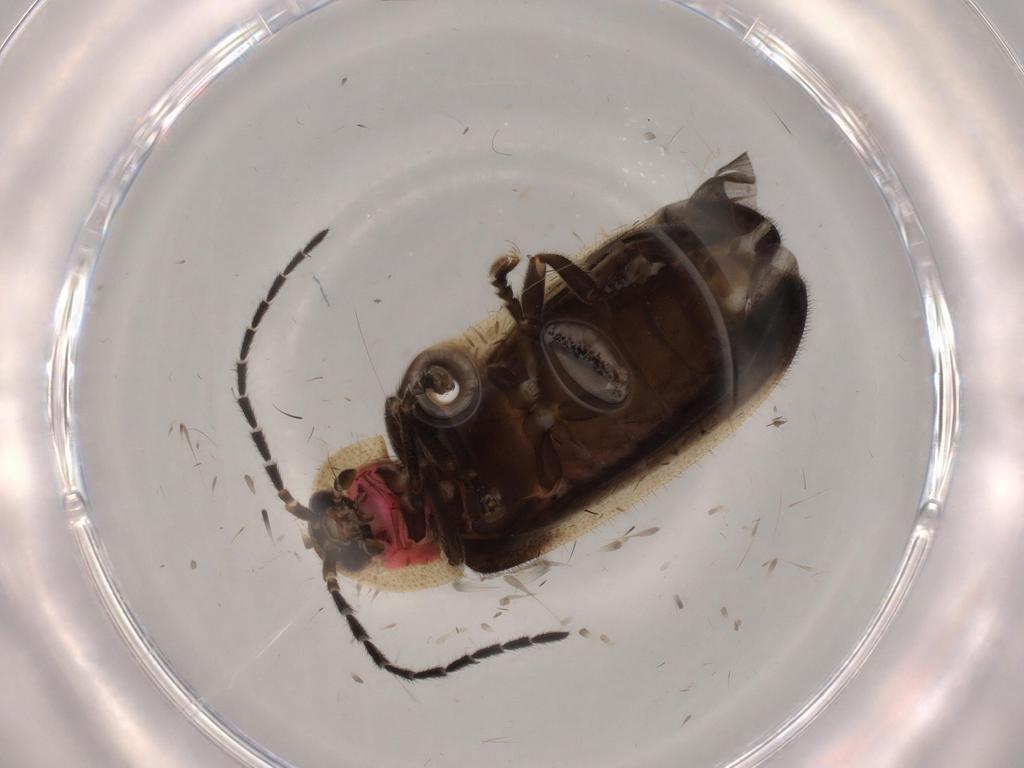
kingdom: Animalia
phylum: Arthropoda
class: Insecta
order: Coleoptera
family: Lampyridae
